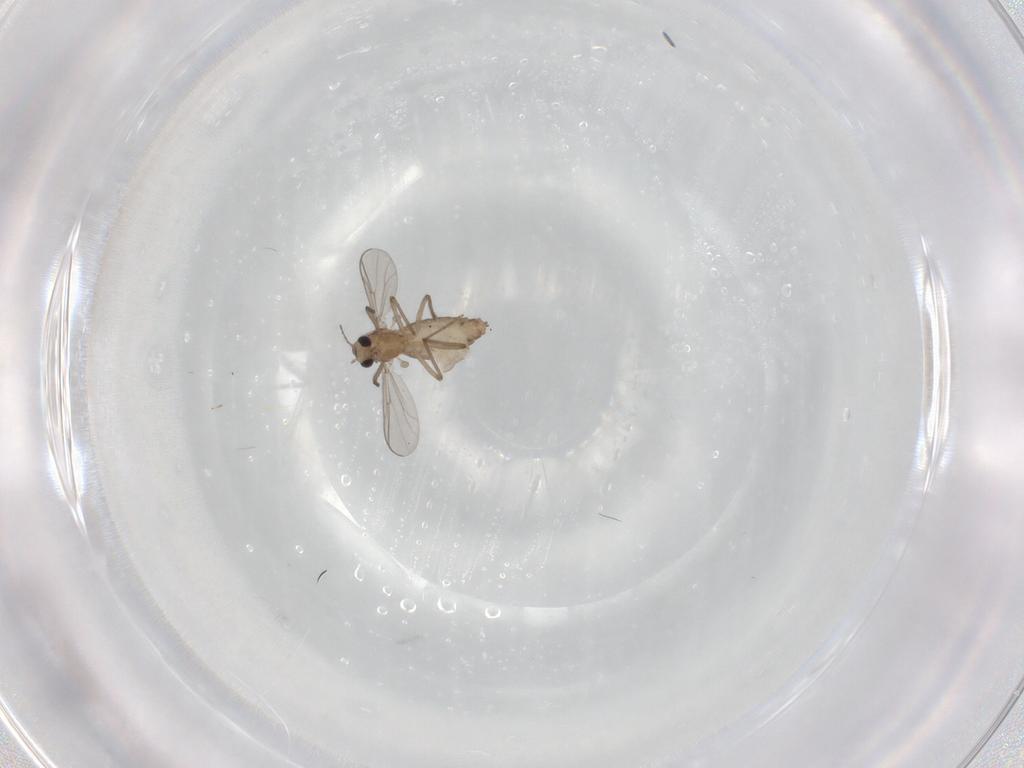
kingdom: Animalia
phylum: Arthropoda
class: Insecta
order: Diptera
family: Chironomidae
